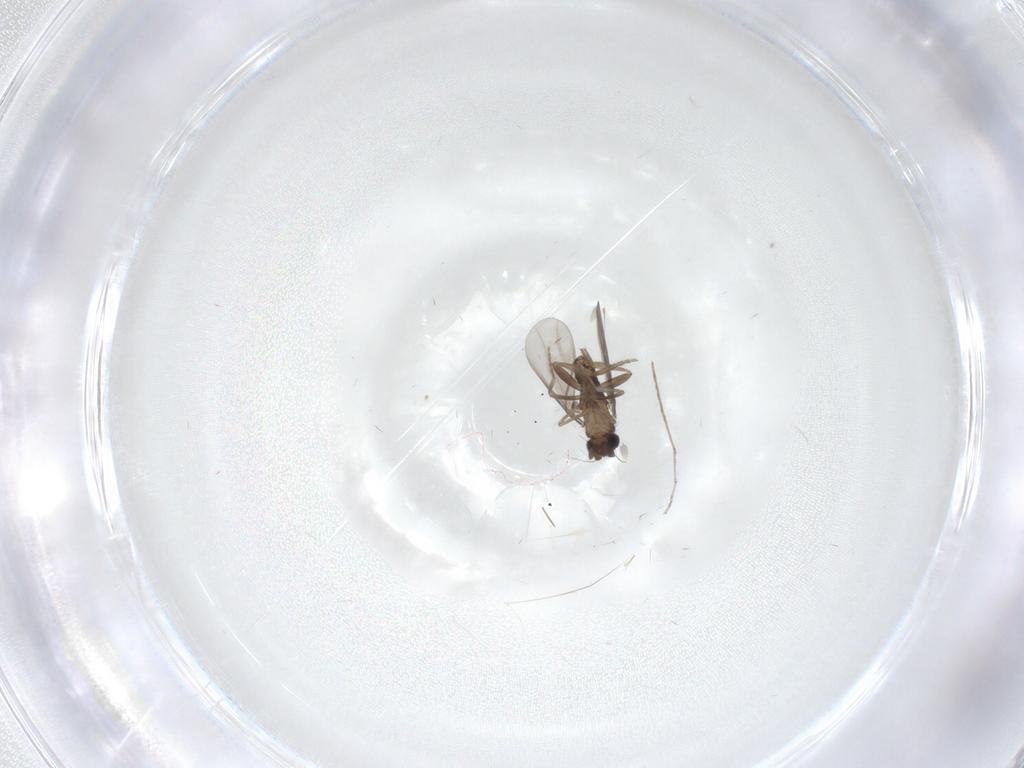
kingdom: Animalia
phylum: Arthropoda
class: Insecta
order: Diptera
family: Cecidomyiidae
